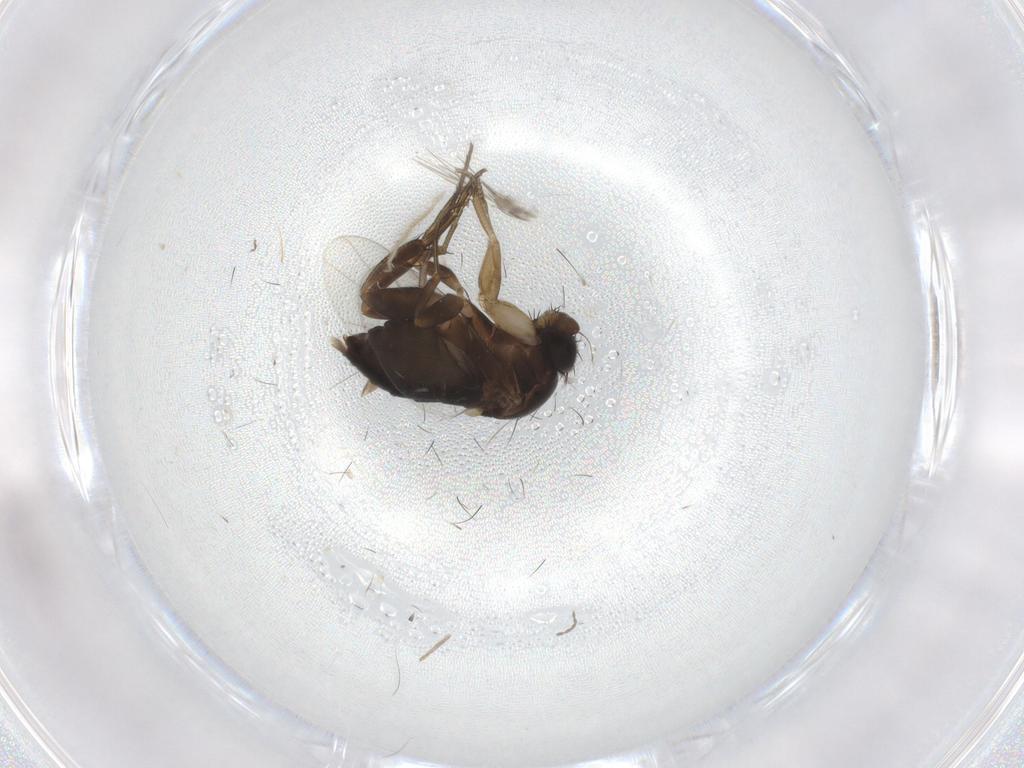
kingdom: Animalia
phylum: Arthropoda
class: Insecta
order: Diptera
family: Phoridae
